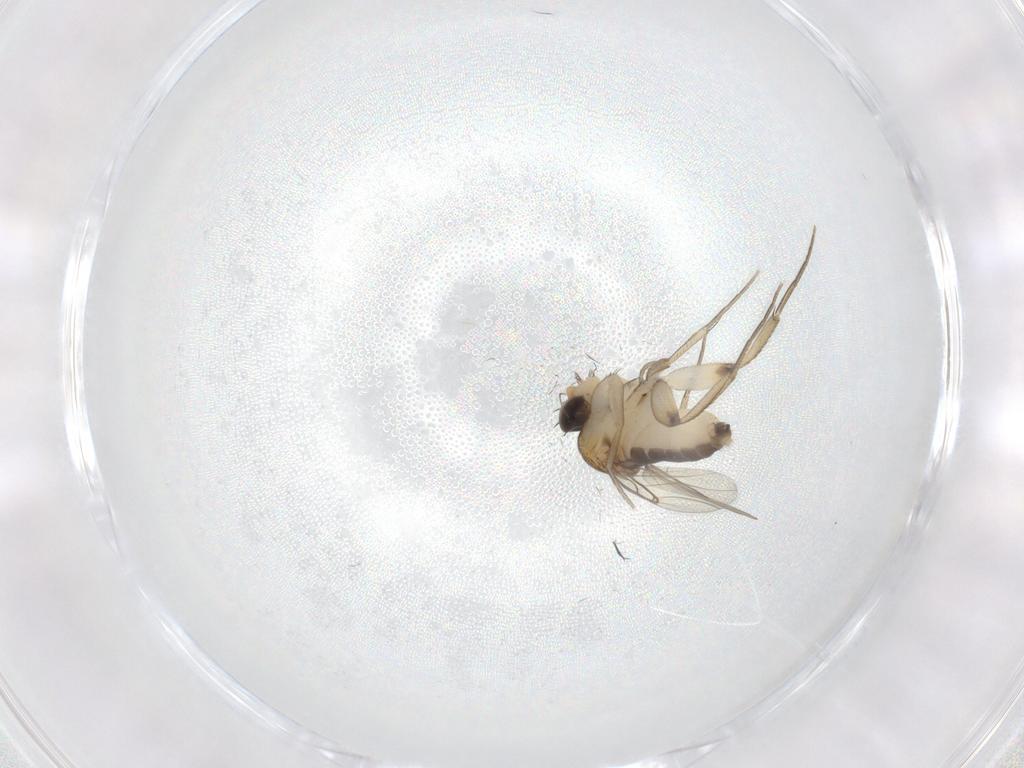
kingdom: Animalia
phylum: Arthropoda
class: Insecta
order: Diptera
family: Phoridae
